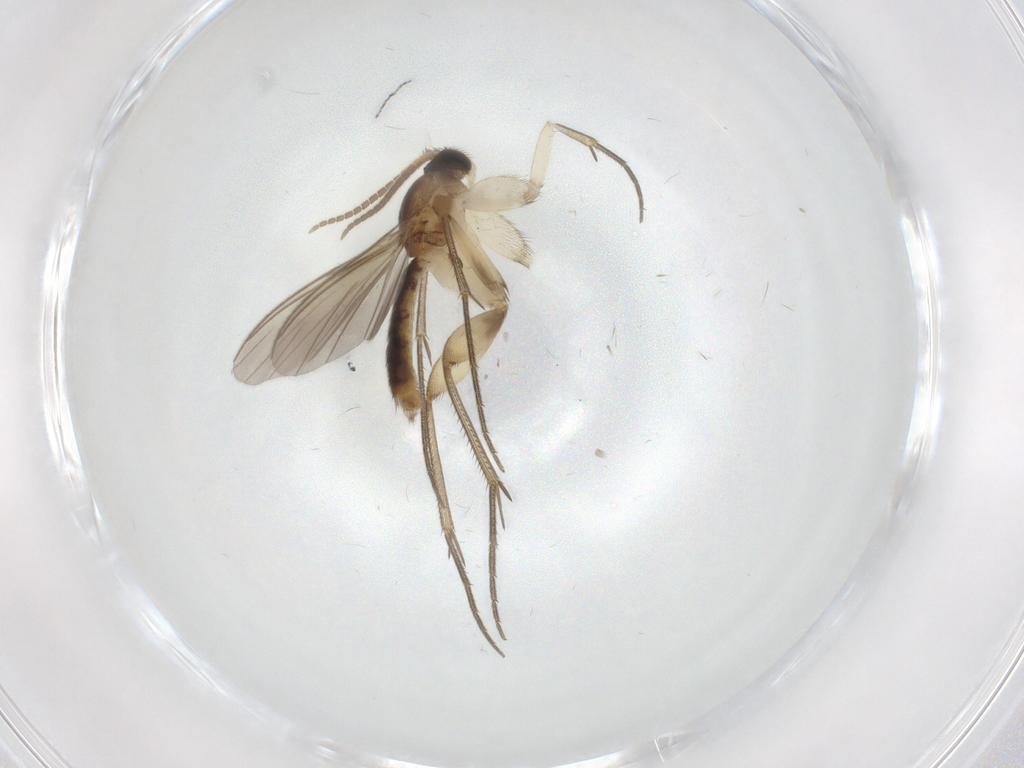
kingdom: Animalia
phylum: Arthropoda
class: Insecta
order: Diptera
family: Mycetophilidae
